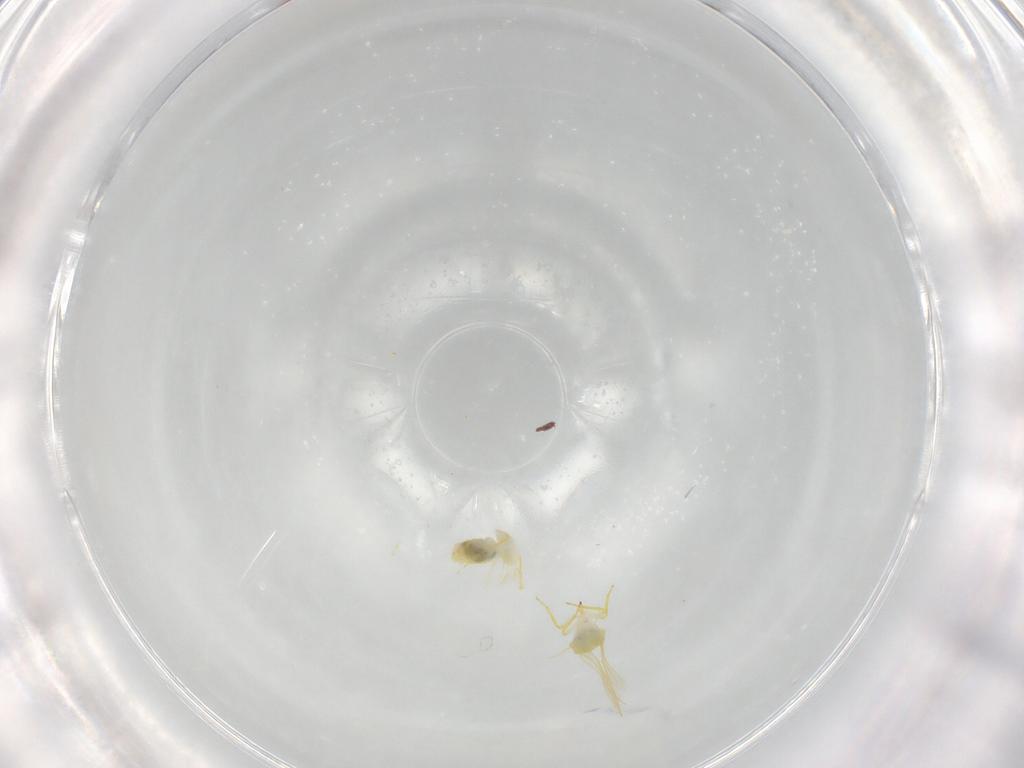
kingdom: Animalia
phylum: Arthropoda
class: Insecta
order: Hemiptera
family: Aleyrodidae
